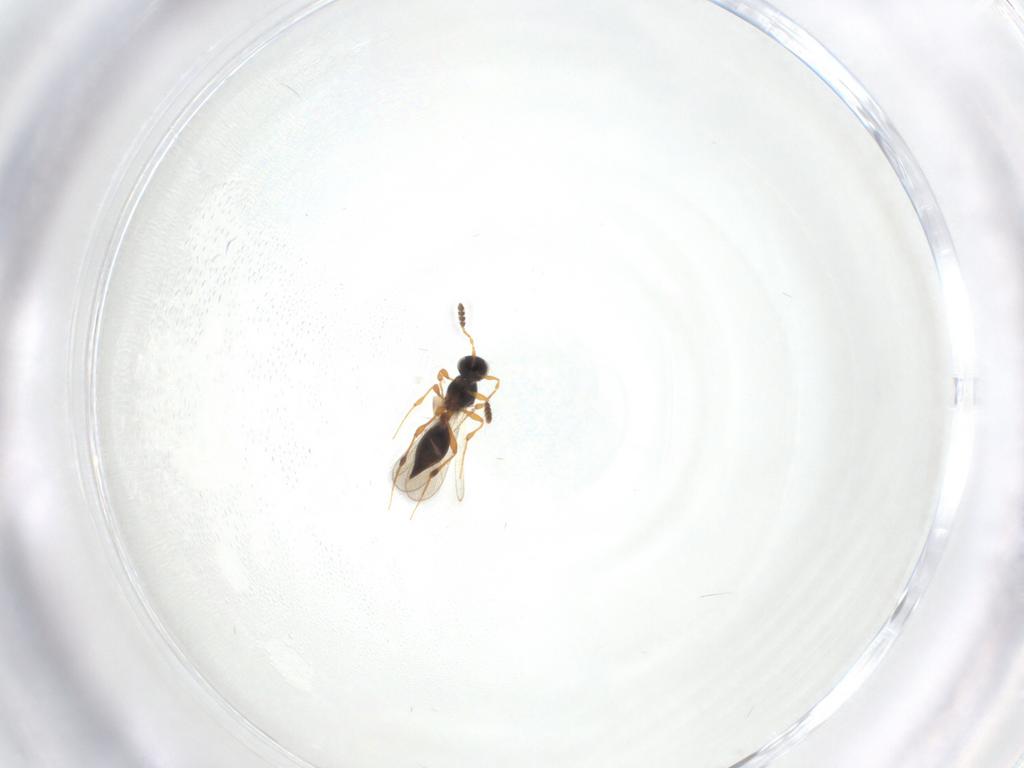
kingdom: Animalia
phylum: Arthropoda
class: Insecta
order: Hymenoptera
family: Platygastridae
